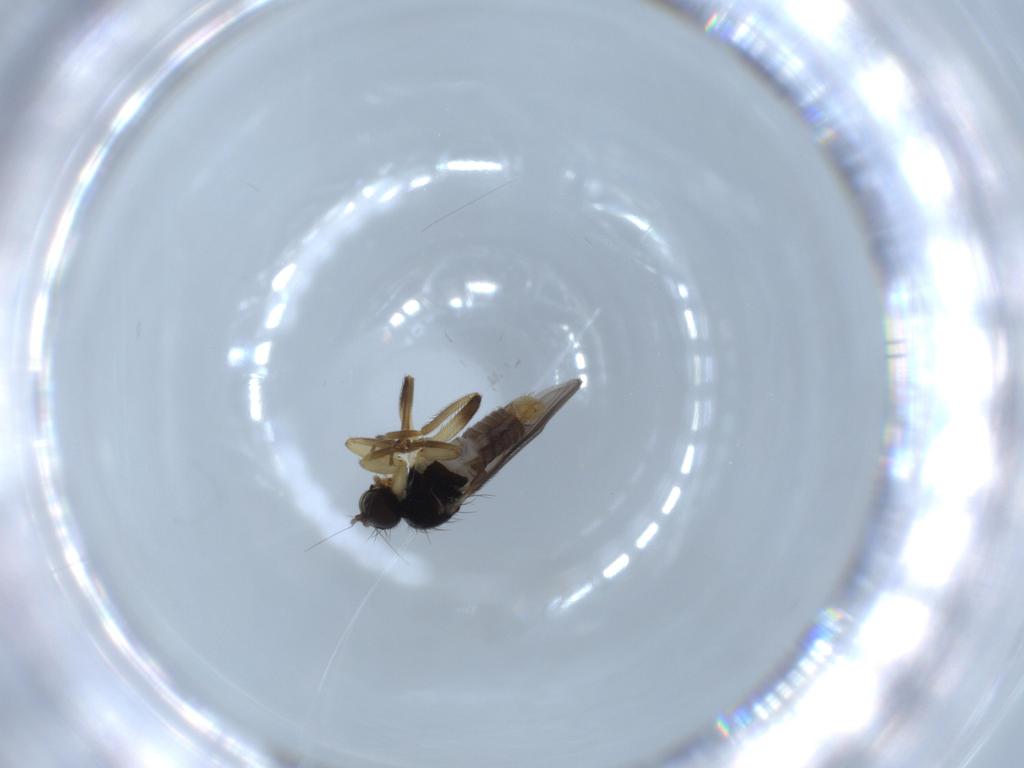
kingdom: Animalia
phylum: Arthropoda
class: Insecta
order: Diptera
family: Hybotidae
